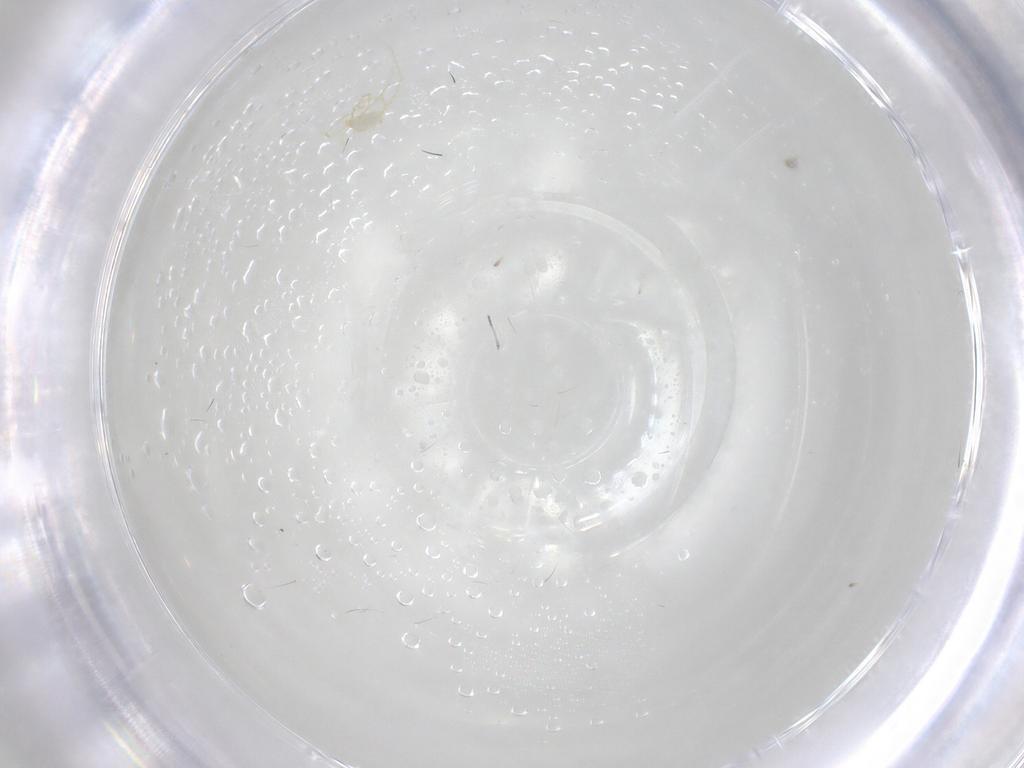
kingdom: Animalia
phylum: Arthropoda
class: Arachnida
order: Trombidiformes
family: Erythraeidae
